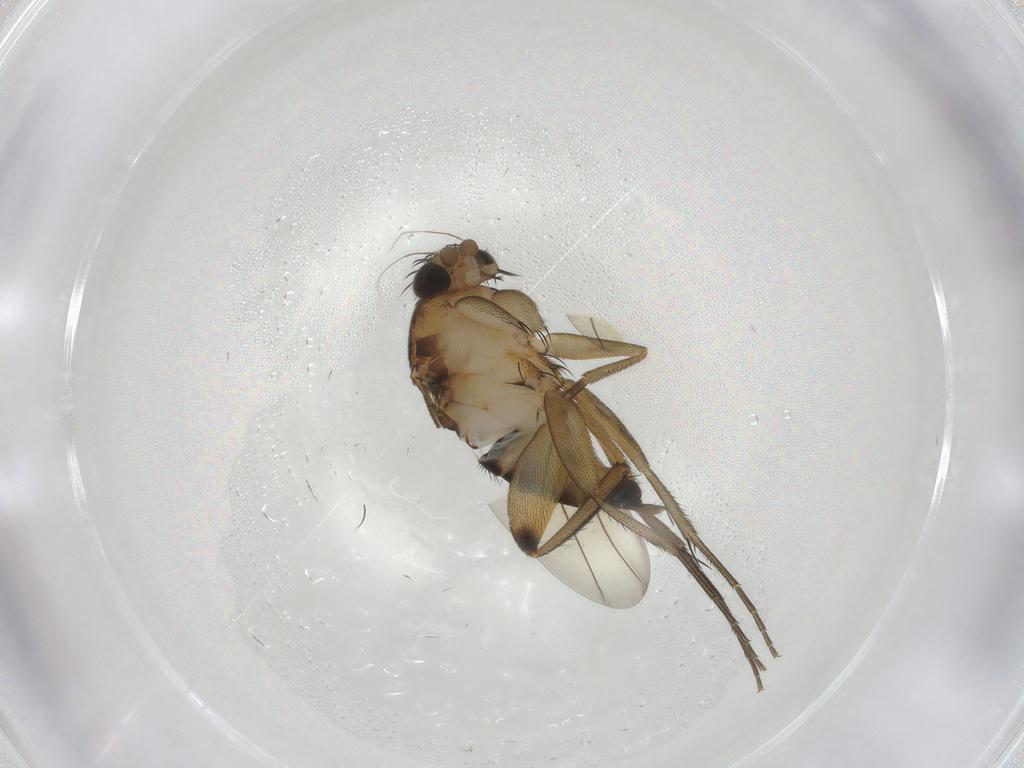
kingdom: Animalia
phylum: Arthropoda
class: Insecta
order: Diptera
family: Phoridae
